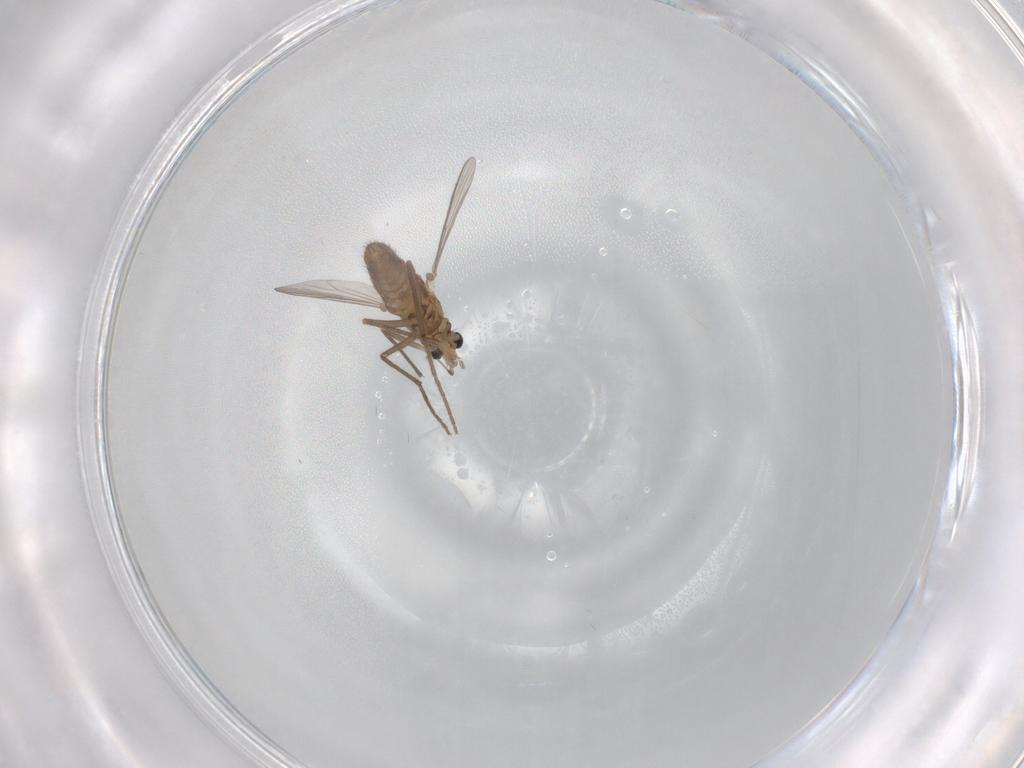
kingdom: Animalia
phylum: Arthropoda
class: Insecta
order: Diptera
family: Chironomidae
